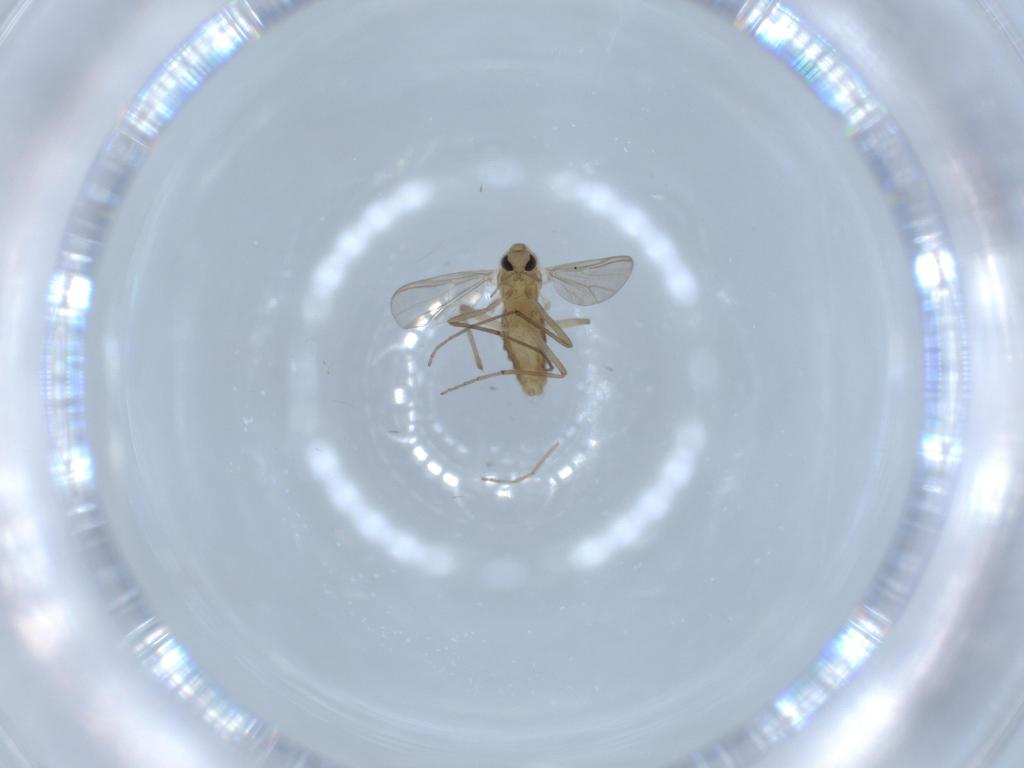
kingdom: Animalia
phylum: Arthropoda
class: Insecta
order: Diptera
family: Chironomidae
